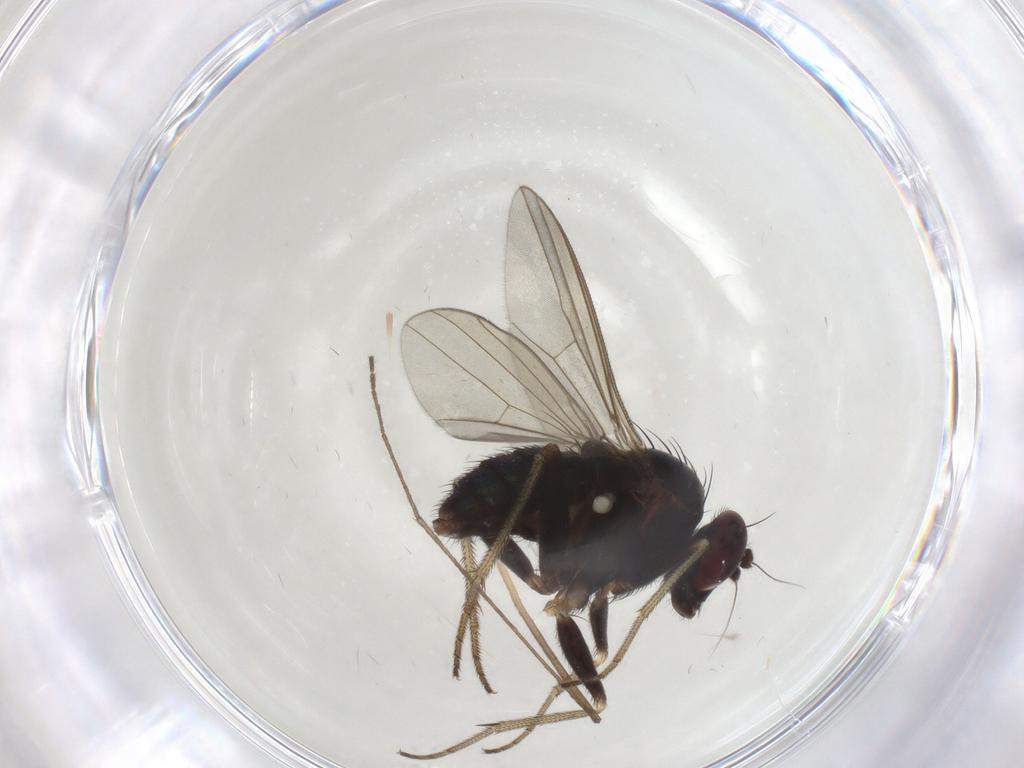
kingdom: Animalia
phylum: Arthropoda
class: Insecta
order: Diptera
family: Dolichopodidae
